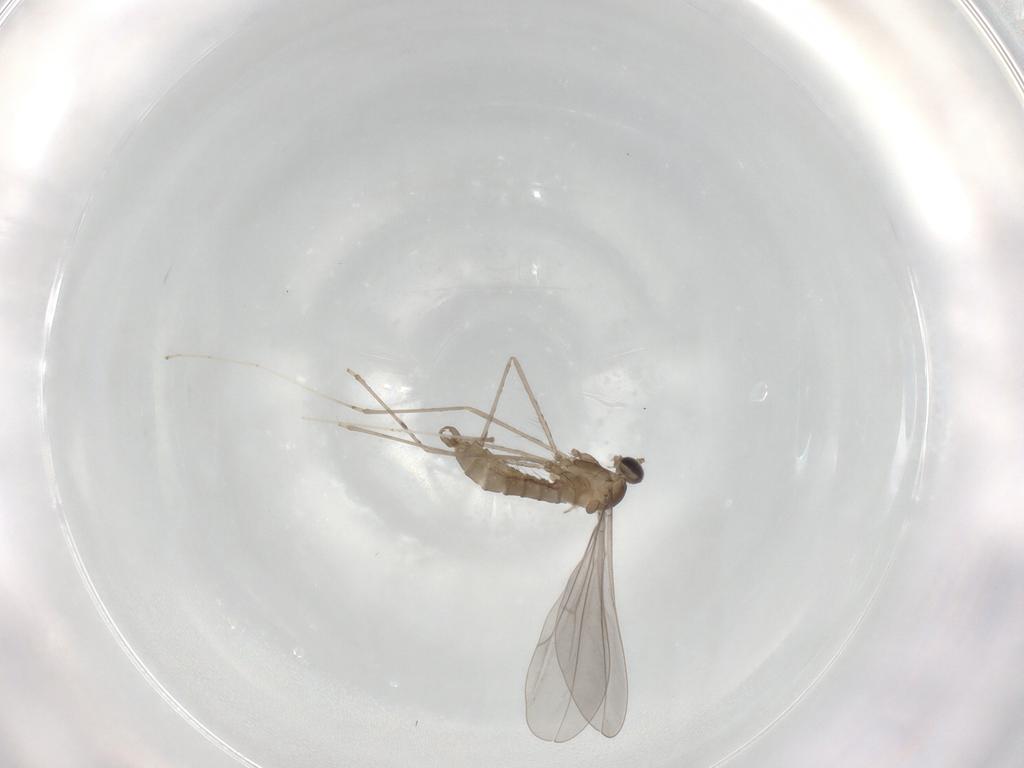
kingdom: Animalia
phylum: Arthropoda
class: Insecta
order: Diptera
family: Cecidomyiidae
